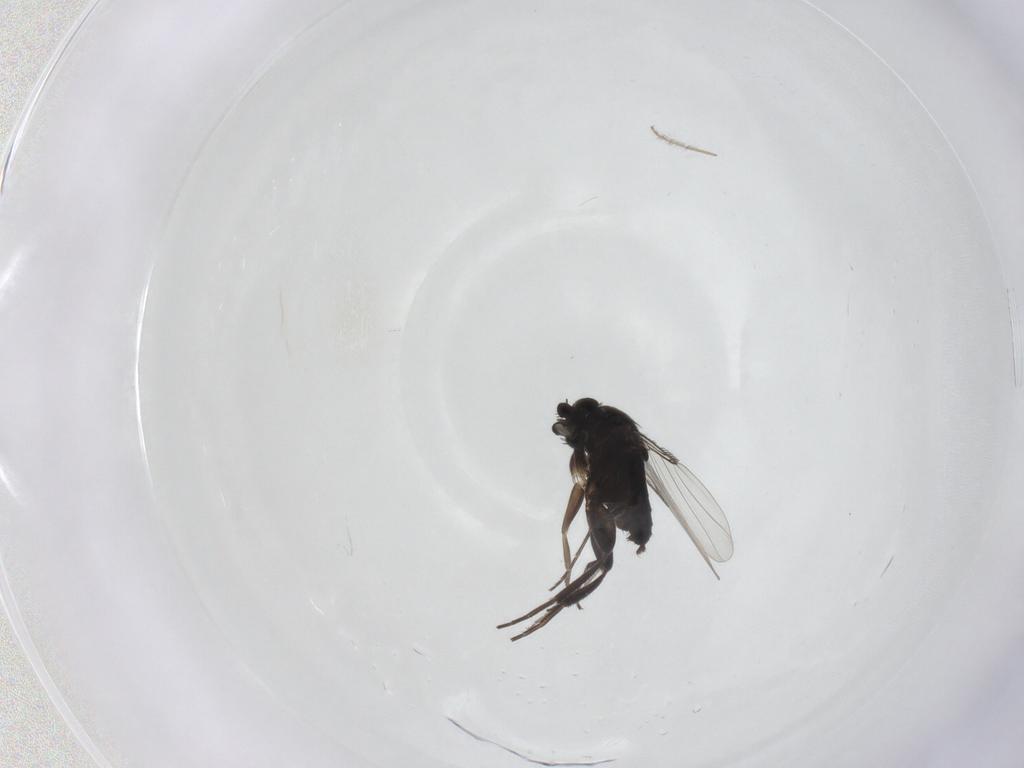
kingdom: Animalia
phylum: Arthropoda
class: Insecta
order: Diptera
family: Phoridae
